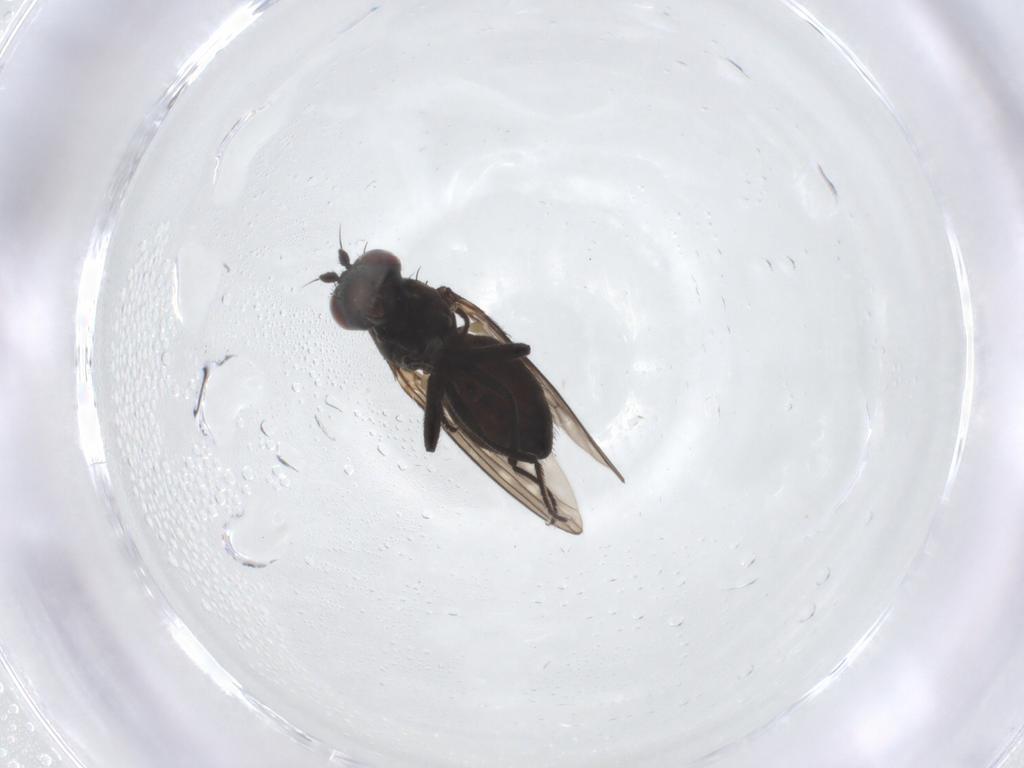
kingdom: Animalia
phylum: Arthropoda
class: Insecta
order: Diptera
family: Ephydridae
